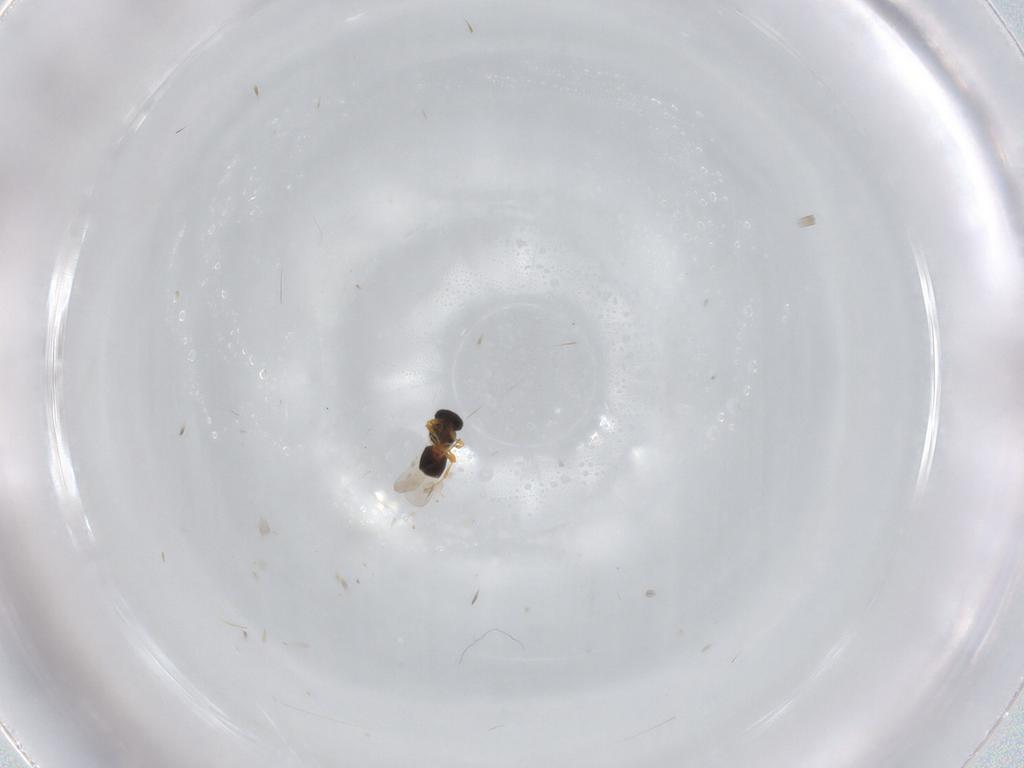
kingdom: Animalia
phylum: Arthropoda
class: Insecta
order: Hymenoptera
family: Platygastridae
